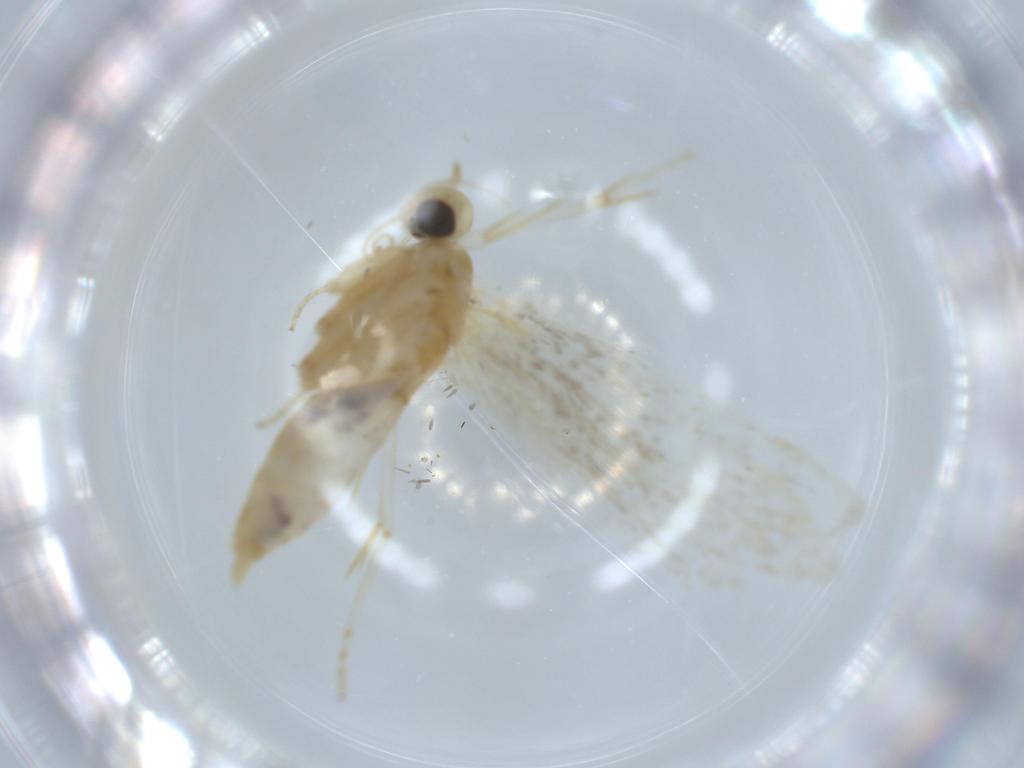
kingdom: Animalia
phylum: Arthropoda
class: Insecta
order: Lepidoptera
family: Autostichidae
